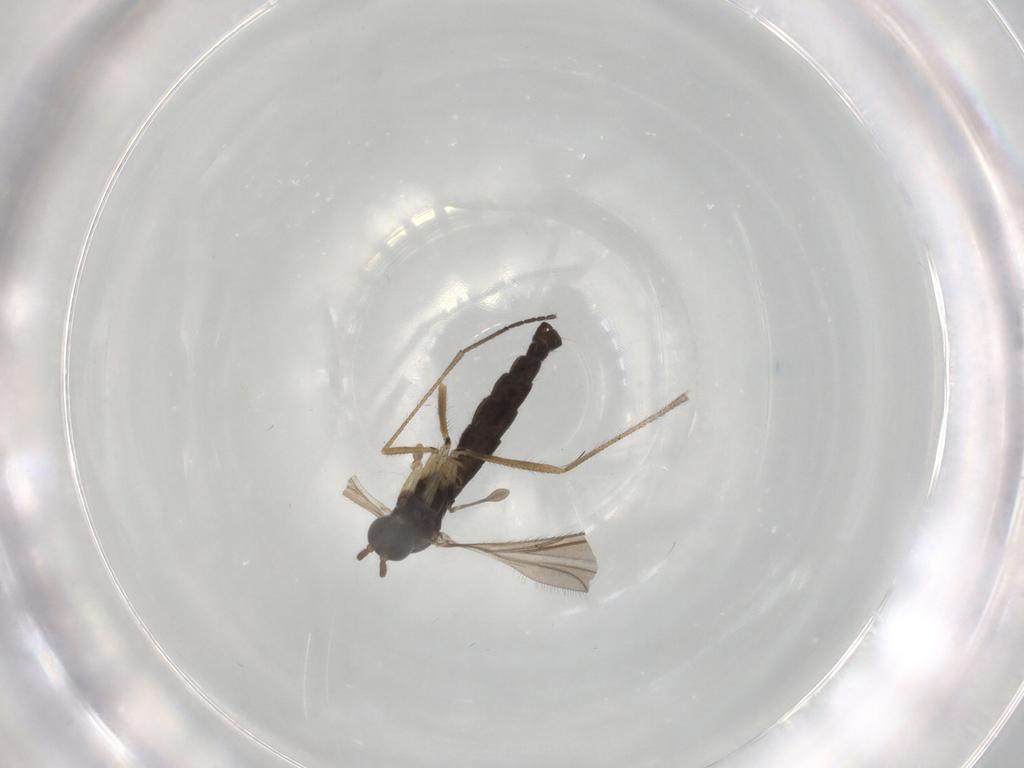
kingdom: Animalia
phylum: Arthropoda
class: Insecta
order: Diptera
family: Sciaridae
